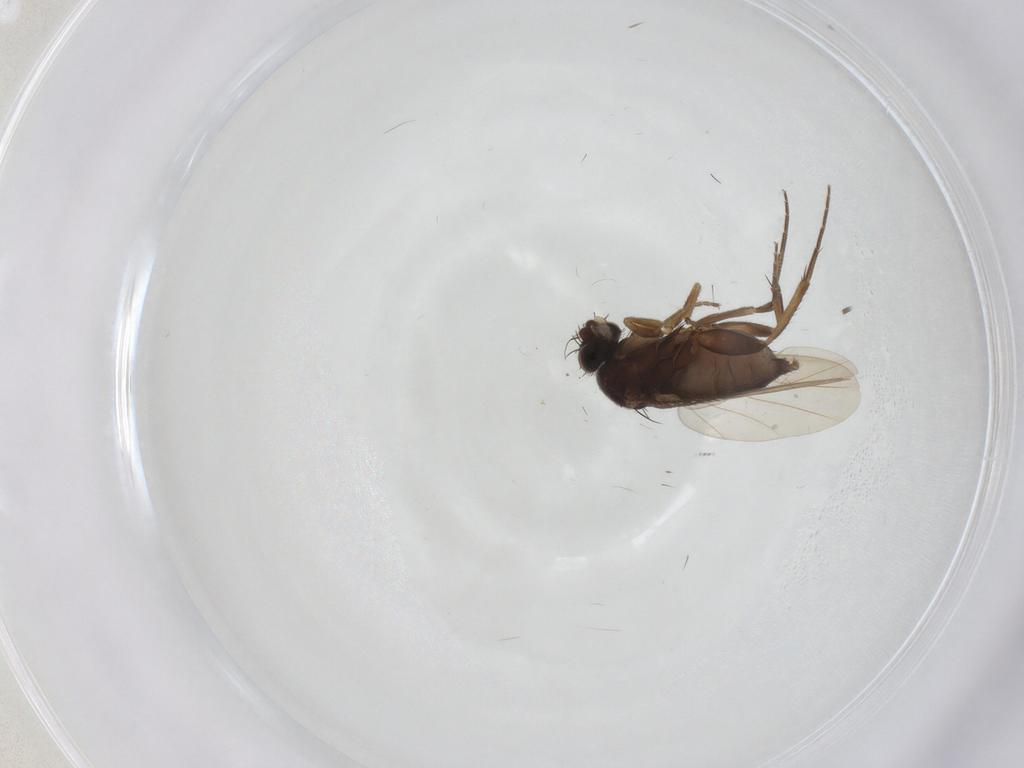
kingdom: Animalia
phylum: Arthropoda
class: Insecta
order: Diptera
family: Phoridae
